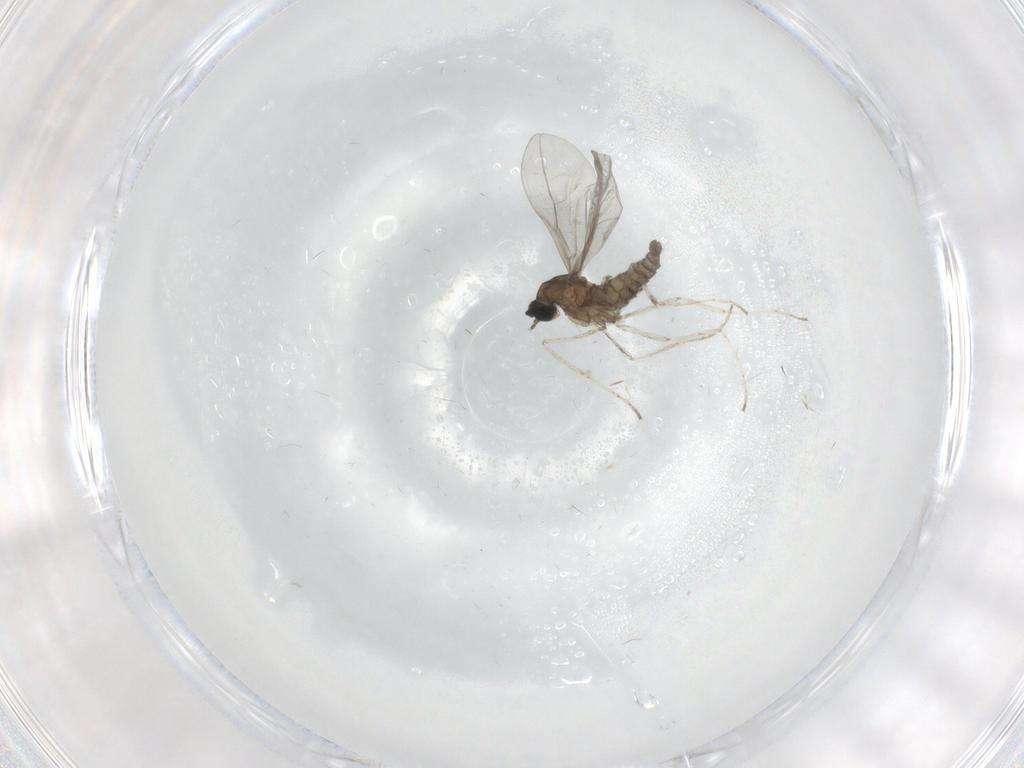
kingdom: Animalia
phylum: Arthropoda
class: Insecta
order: Diptera
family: Cecidomyiidae
